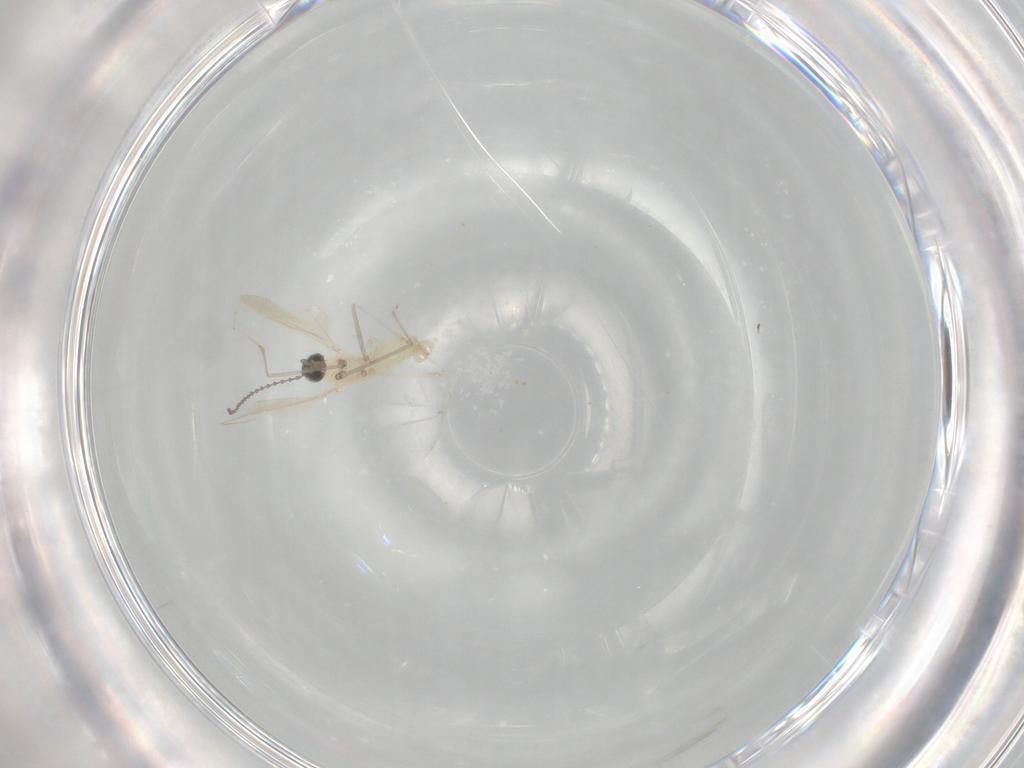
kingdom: Animalia
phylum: Arthropoda
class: Insecta
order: Diptera
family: Cecidomyiidae
